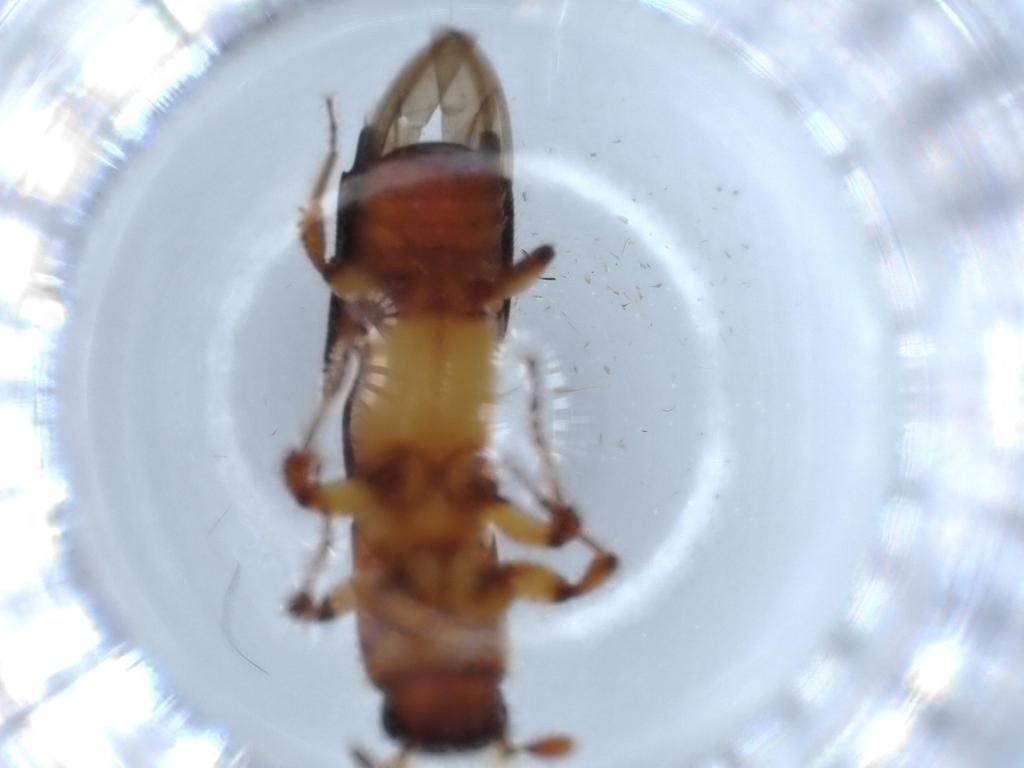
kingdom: Animalia
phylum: Arthropoda
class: Insecta
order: Coleoptera
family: Curculionidae
